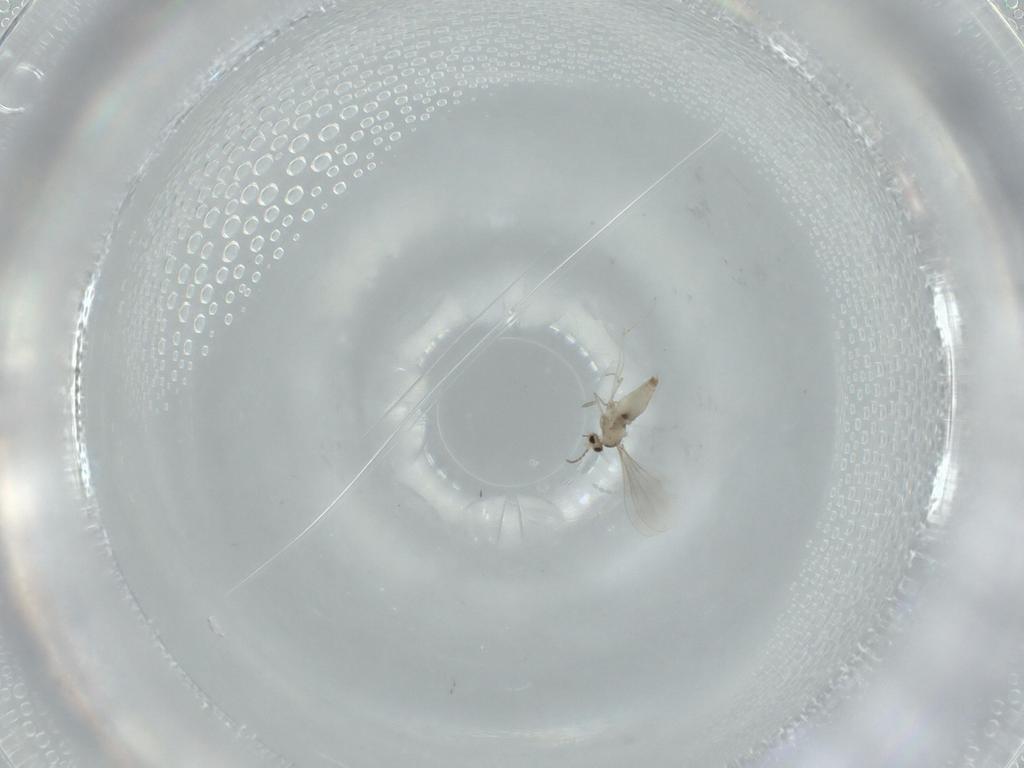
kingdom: Animalia
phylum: Arthropoda
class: Insecta
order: Diptera
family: Cecidomyiidae
